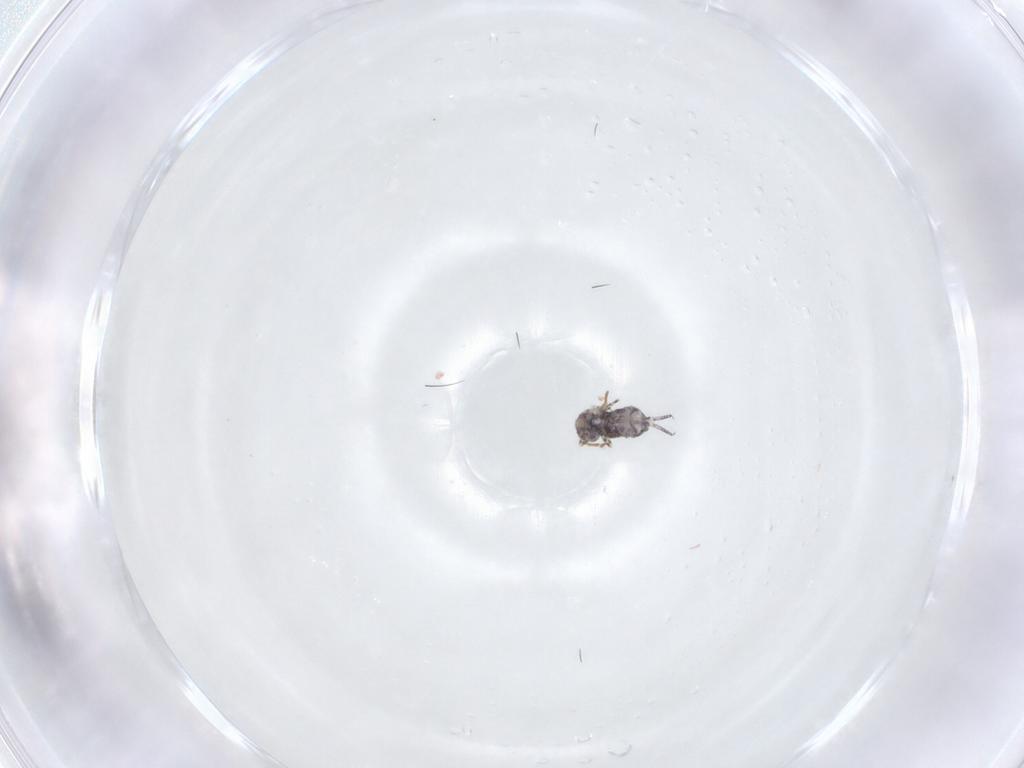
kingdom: Animalia
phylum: Arthropoda
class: Collembola
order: Symphypleona
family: Bourletiellidae
